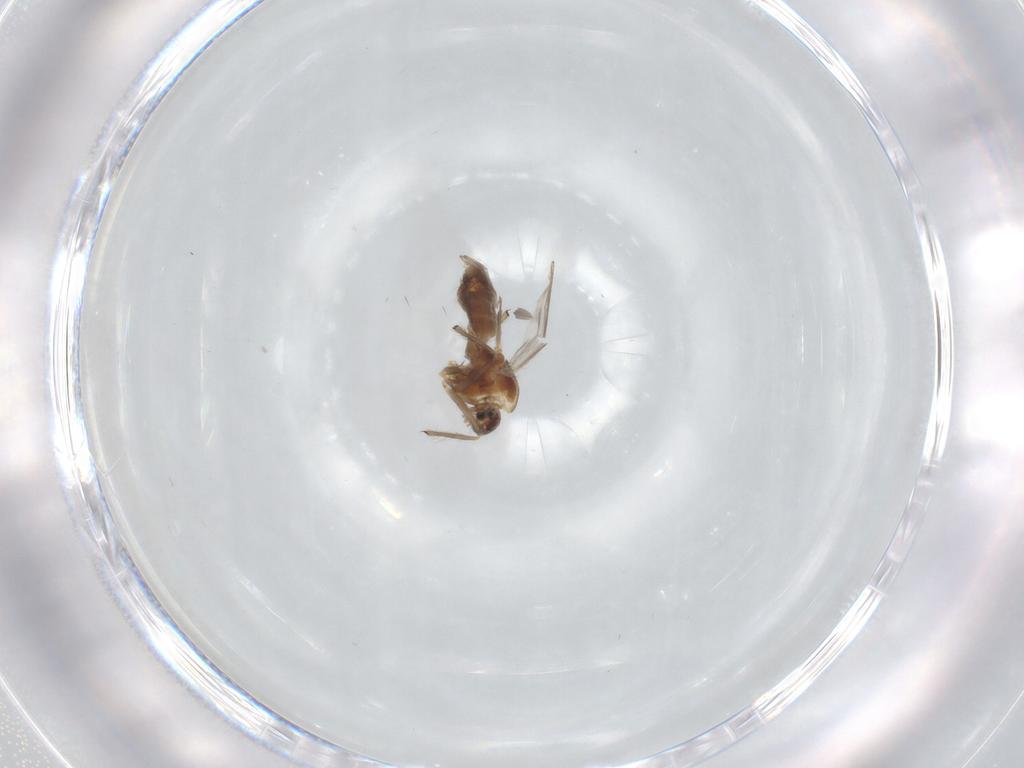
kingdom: Animalia
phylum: Arthropoda
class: Insecta
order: Diptera
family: Chironomidae
